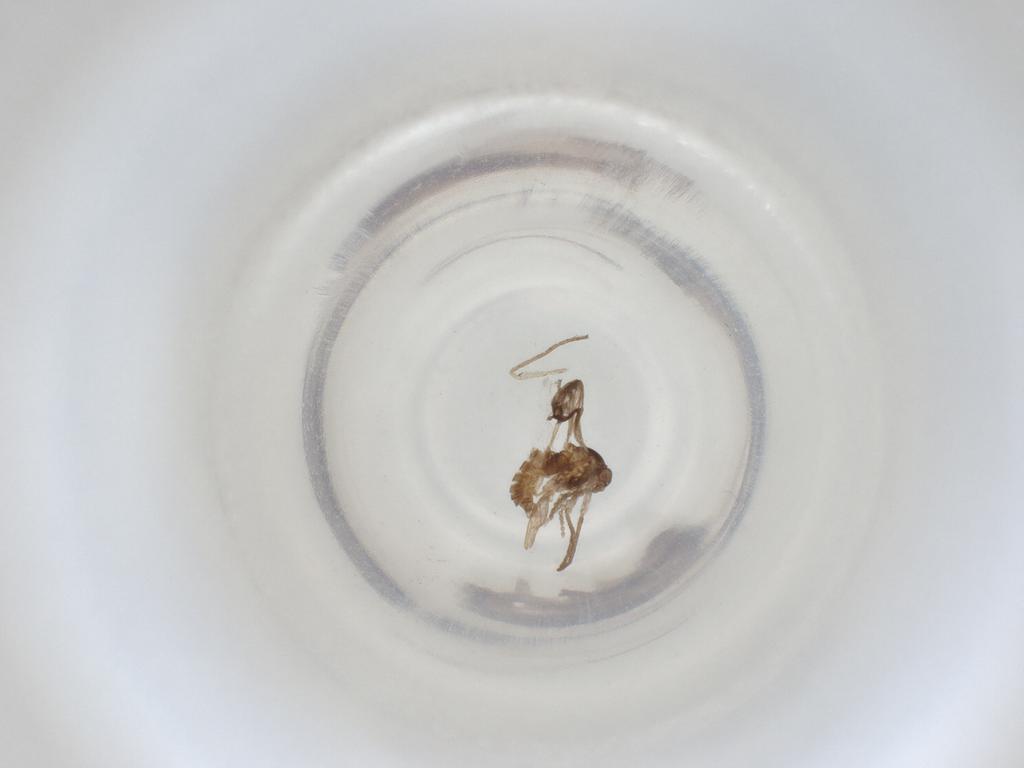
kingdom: Animalia
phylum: Arthropoda
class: Insecta
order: Diptera
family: Cecidomyiidae
